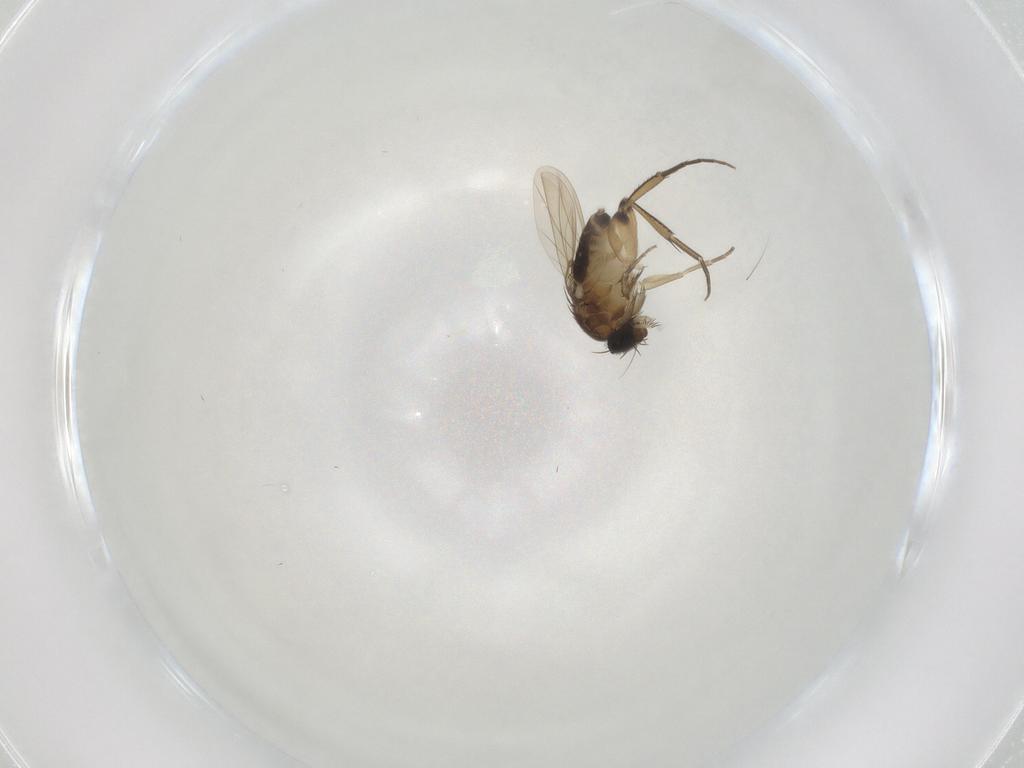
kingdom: Animalia
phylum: Arthropoda
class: Insecta
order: Diptera
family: Phoridae
